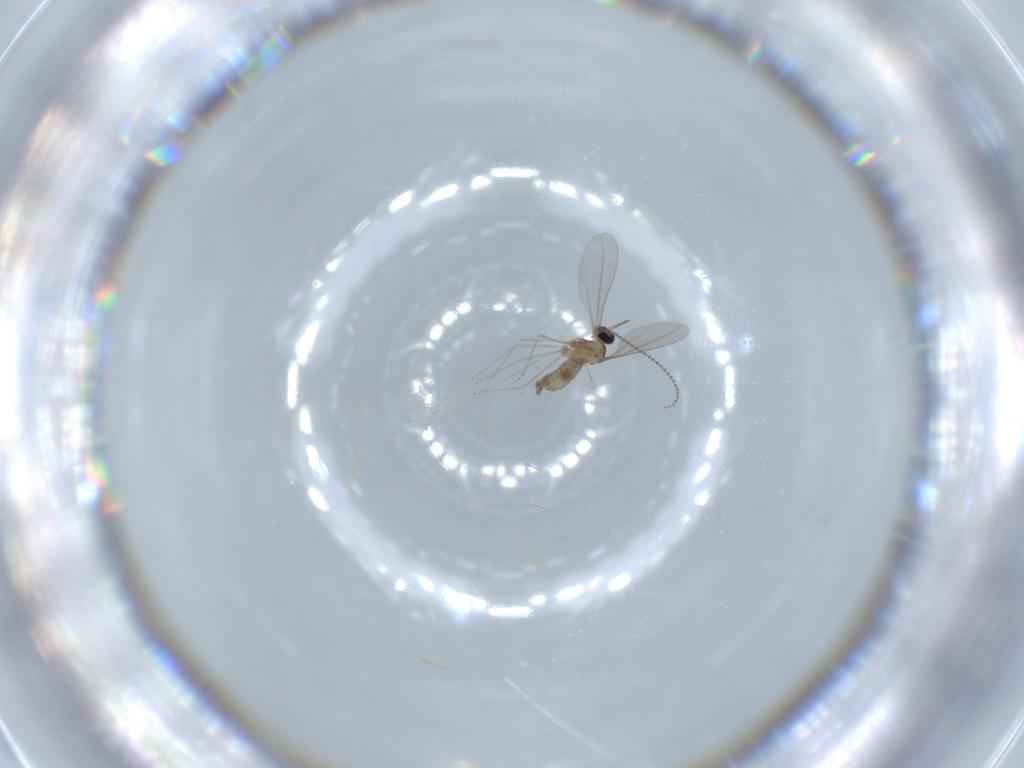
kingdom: Animalia
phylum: Arthropoda
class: Insecta
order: Diptera
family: Cecidomyiidae
